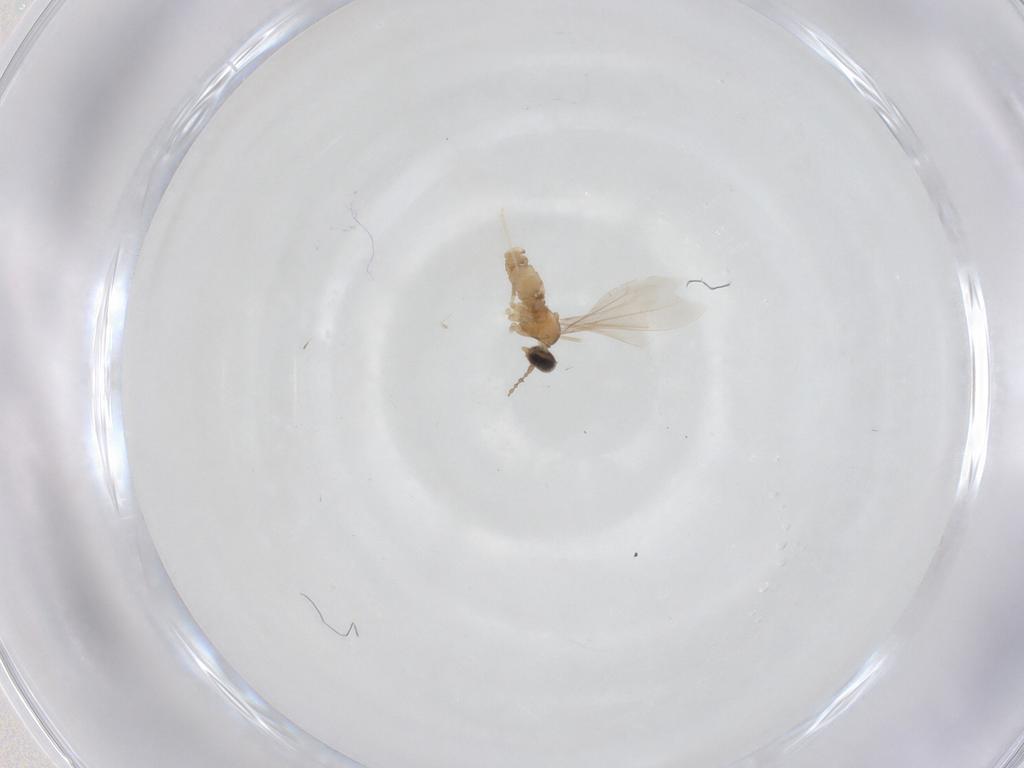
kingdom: Animalia
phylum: Arthropoda
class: Insecta
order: Diptera
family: Cecidomyiidae
